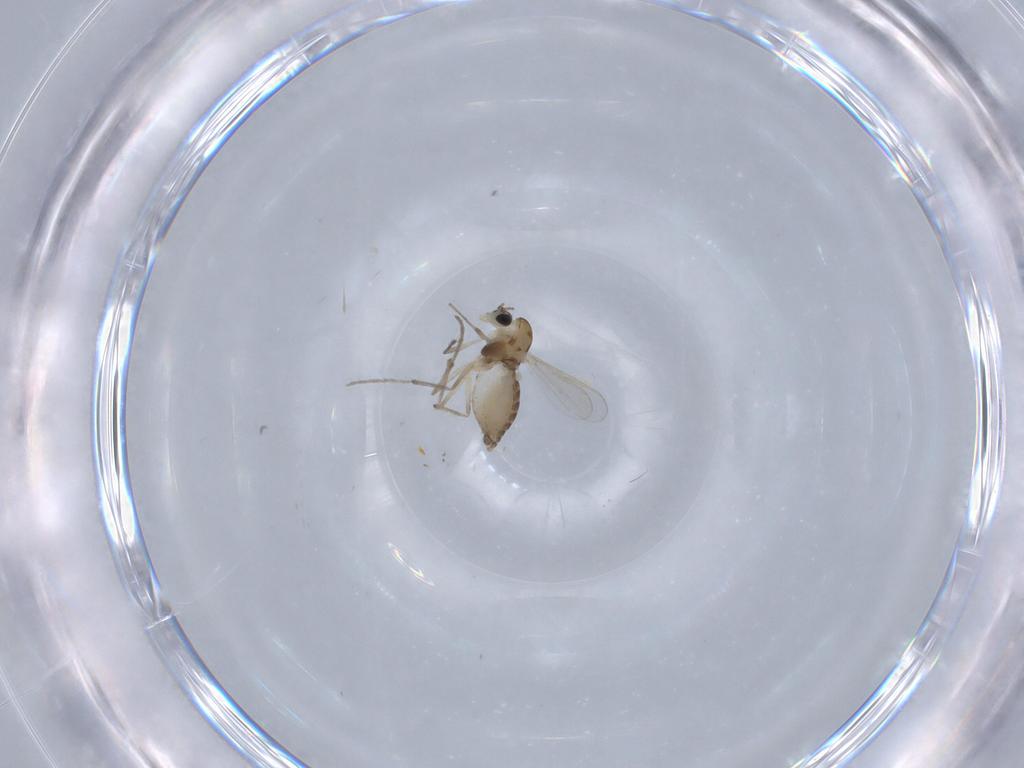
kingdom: Animalia
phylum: Arthropoda
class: Insecta
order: Diptera
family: Chironomidae
